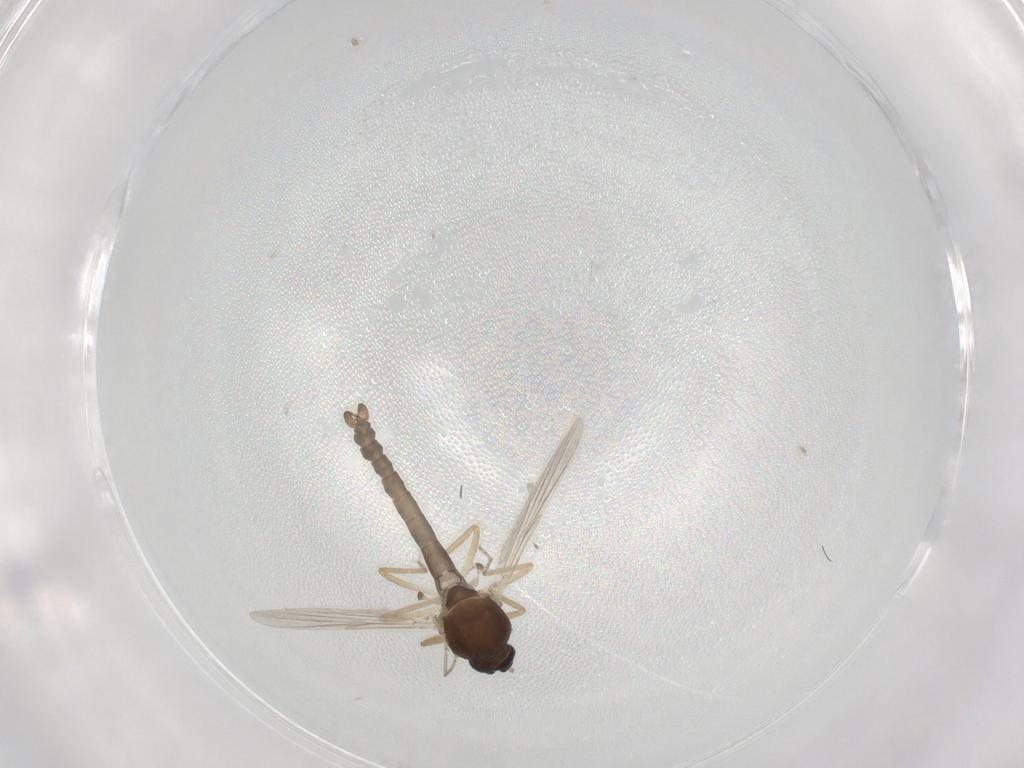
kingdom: Animalia
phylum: Arthropoda
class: Insecta
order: Diptera
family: Ceratopogonidae
